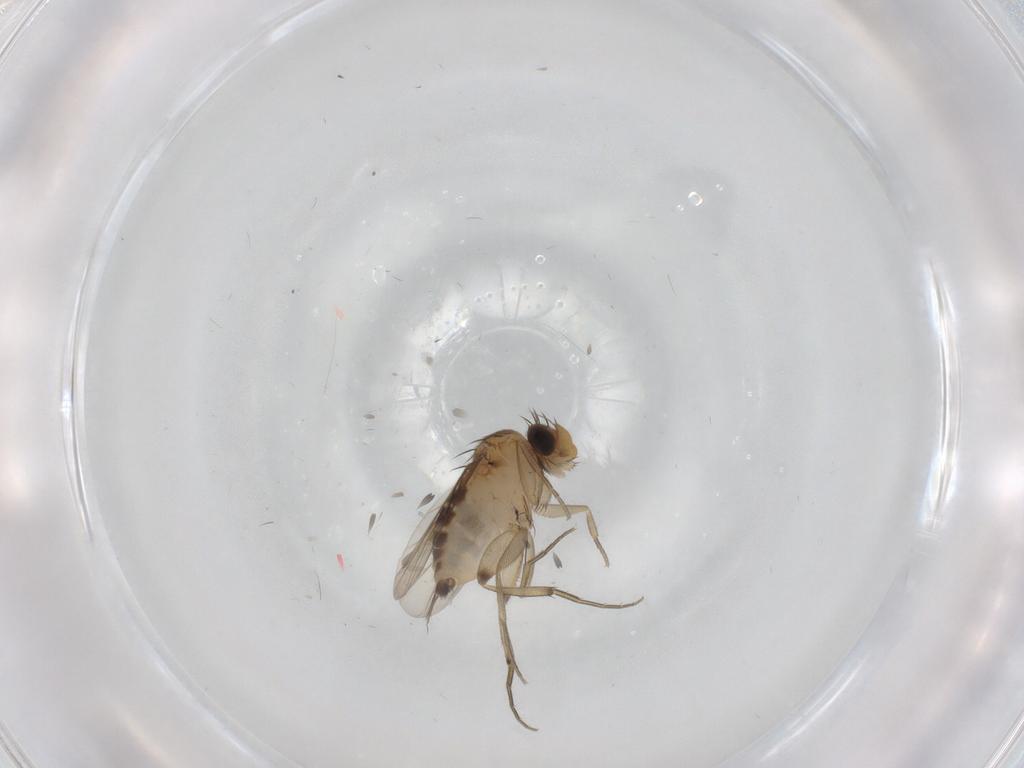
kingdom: Animalia
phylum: Arthropoda
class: Insecta
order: Diptera
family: Phoridae
